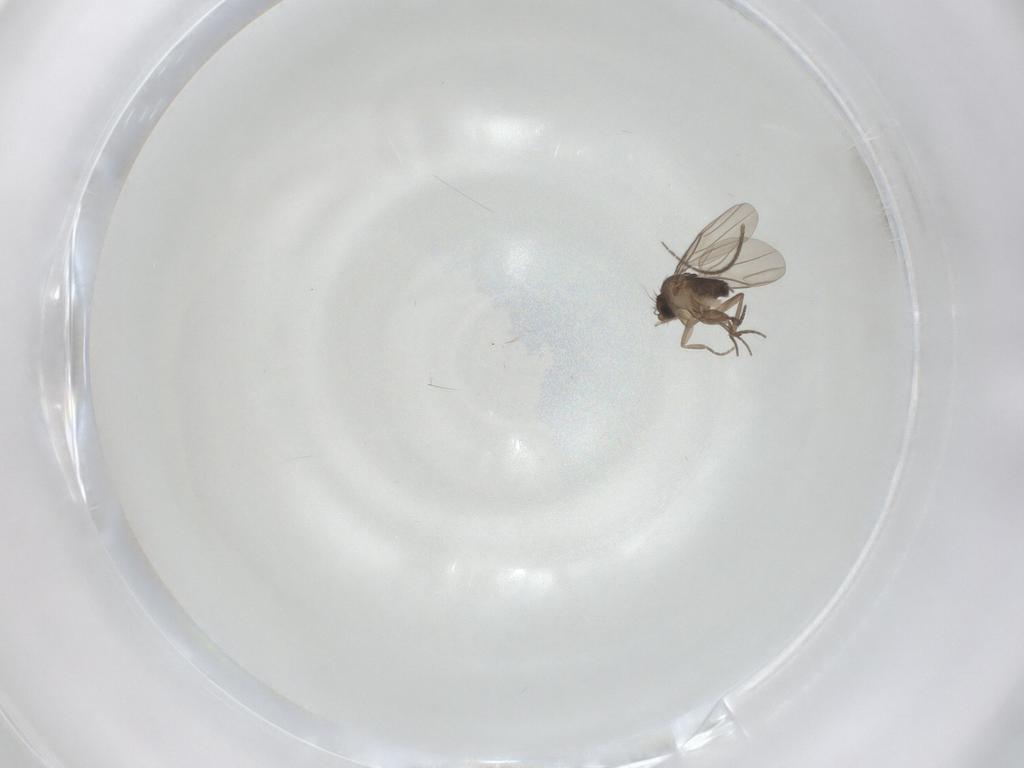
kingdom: Animalia
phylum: Arthropoda
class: Insecta
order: Diptera
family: Sciaridae
